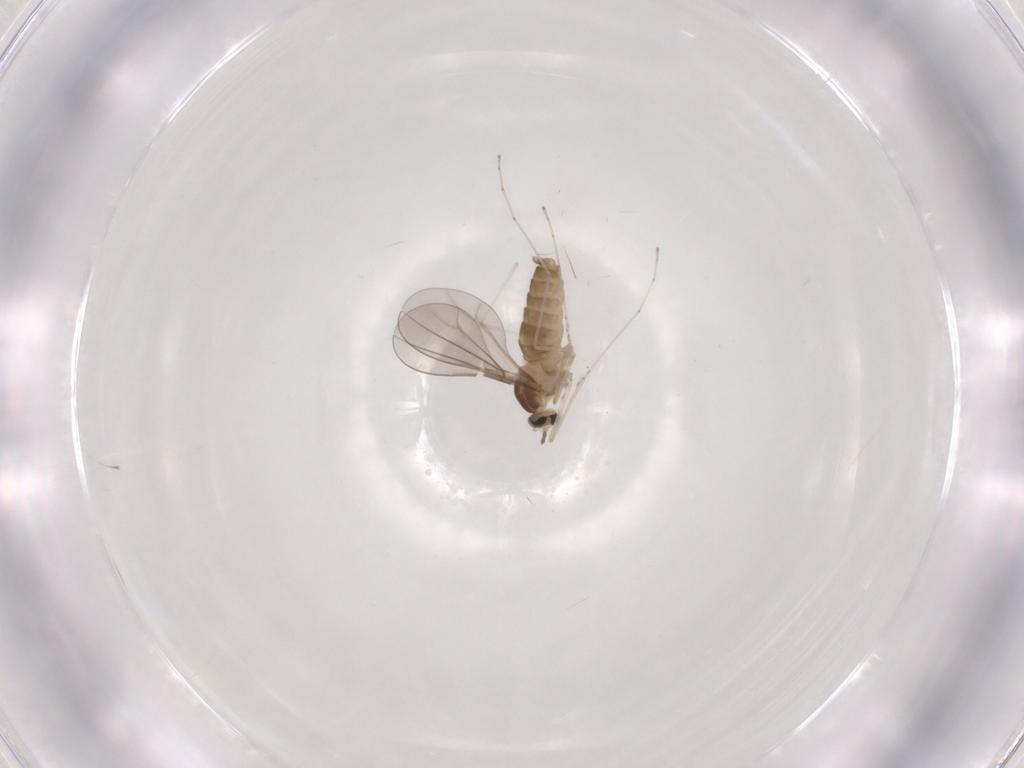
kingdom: Animalia
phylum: Arthropoda
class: Insecta
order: Diptera
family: Cecidomyiidae
